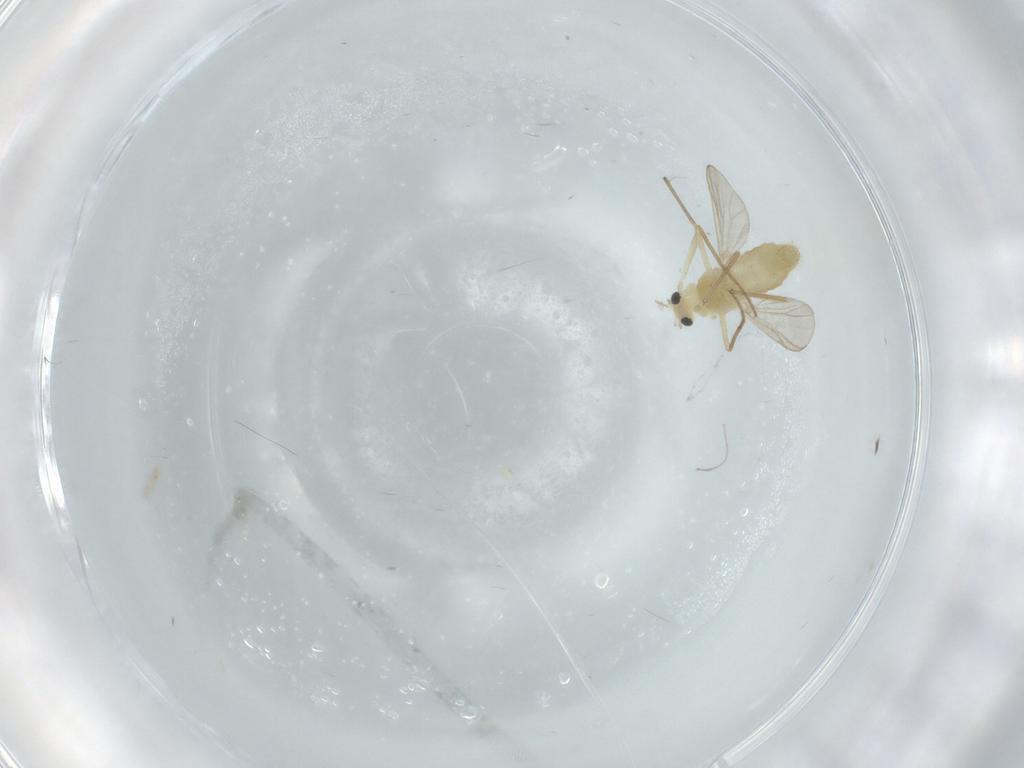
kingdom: Animalia
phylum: Arthropoda
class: Insecta
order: Diptera
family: Chironomidae
